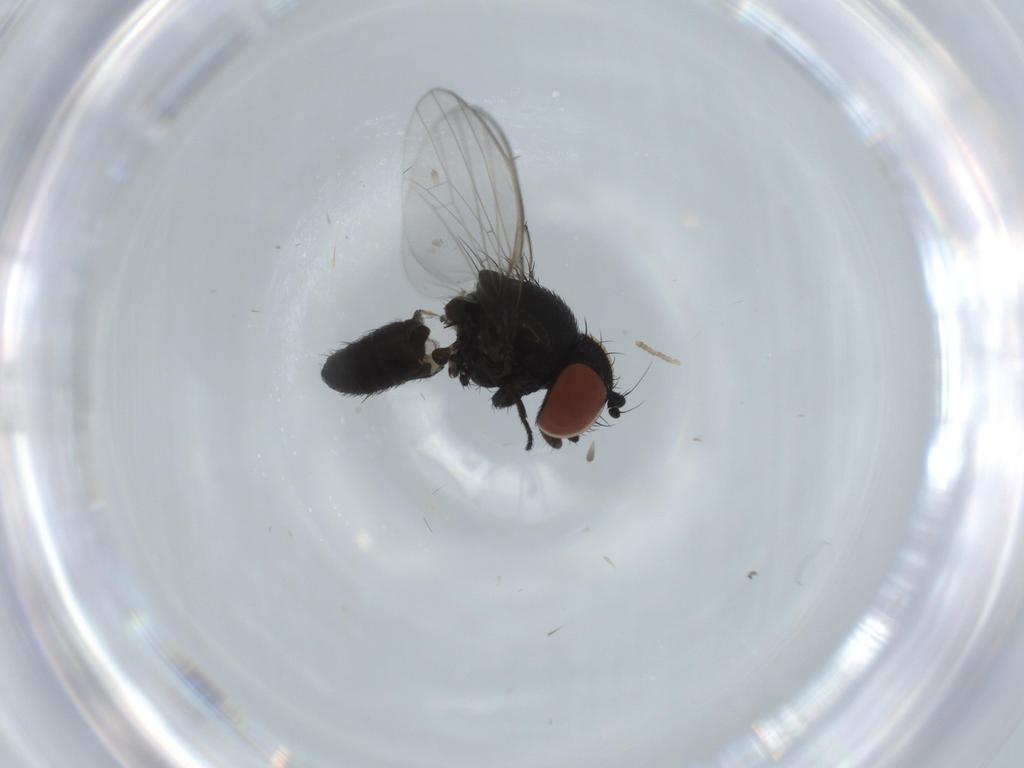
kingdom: Animalia
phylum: Arthropoda
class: Insecta
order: Diptera
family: Milichiidae
